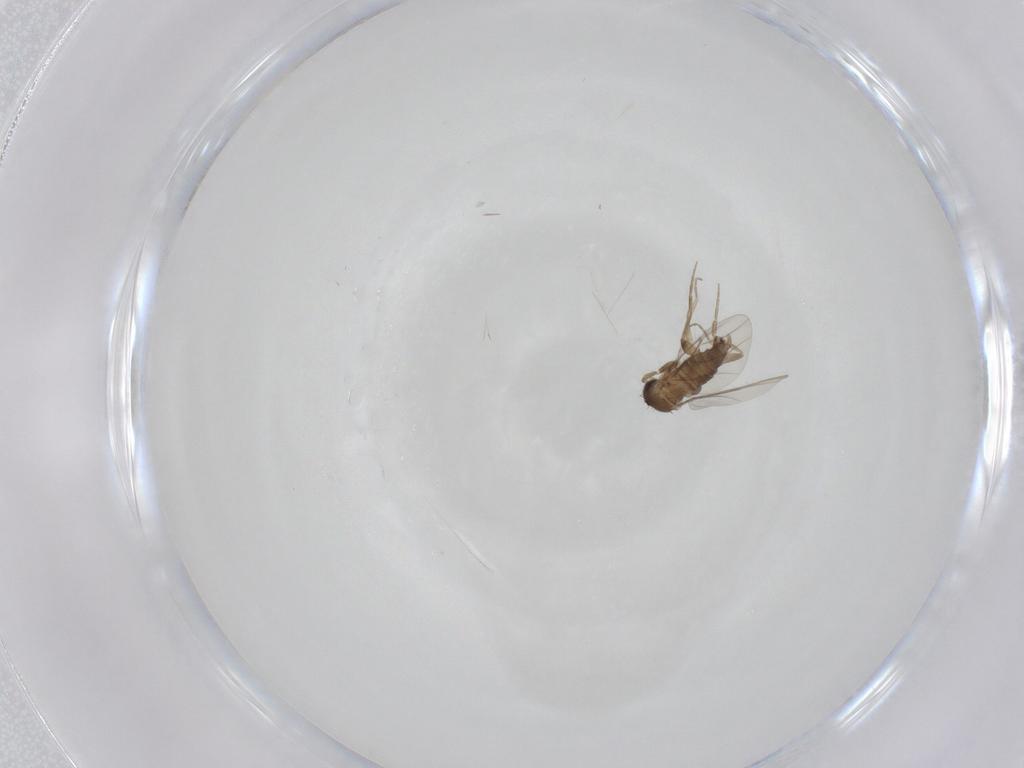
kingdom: Animalia
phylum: Arthropoda
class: Insecta
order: Diptera
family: Phoridae
